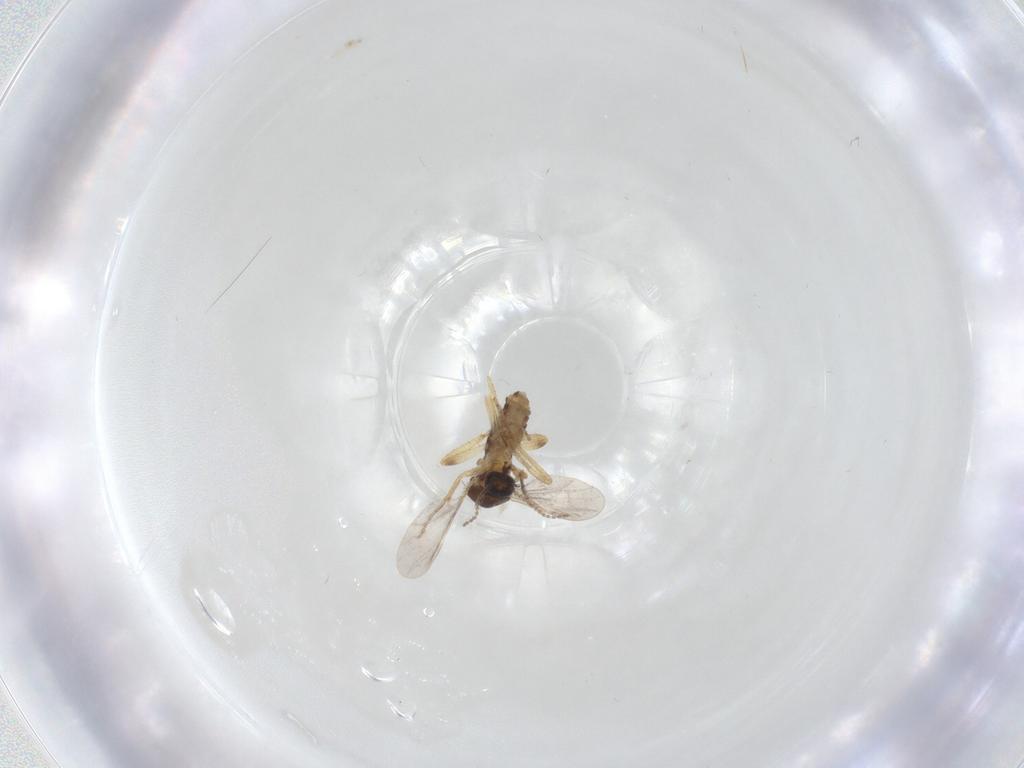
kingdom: Animalia
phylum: Arthropoda
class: Insecta
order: Diptera
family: Ceratopogonidae
